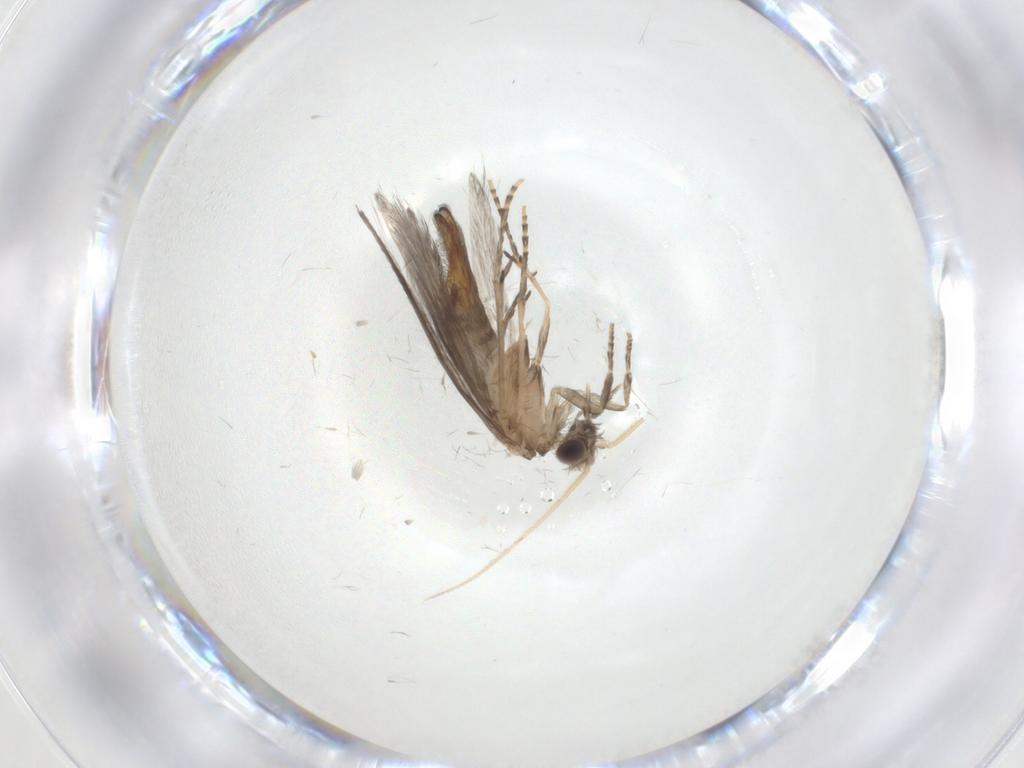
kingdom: Animalia
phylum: Arthropoda
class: Insecta
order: Trichoptera
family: Hydroptilidae
